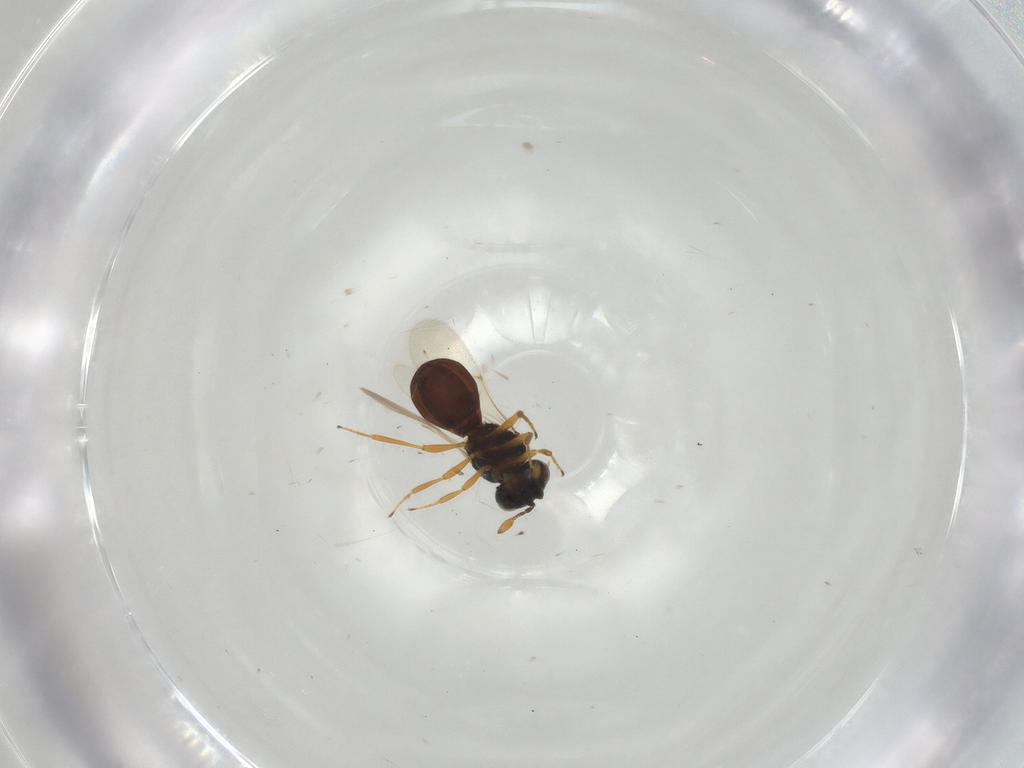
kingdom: Animalia
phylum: Arthropoda
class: Insecta
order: Hymenoptera
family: Scelionidae
